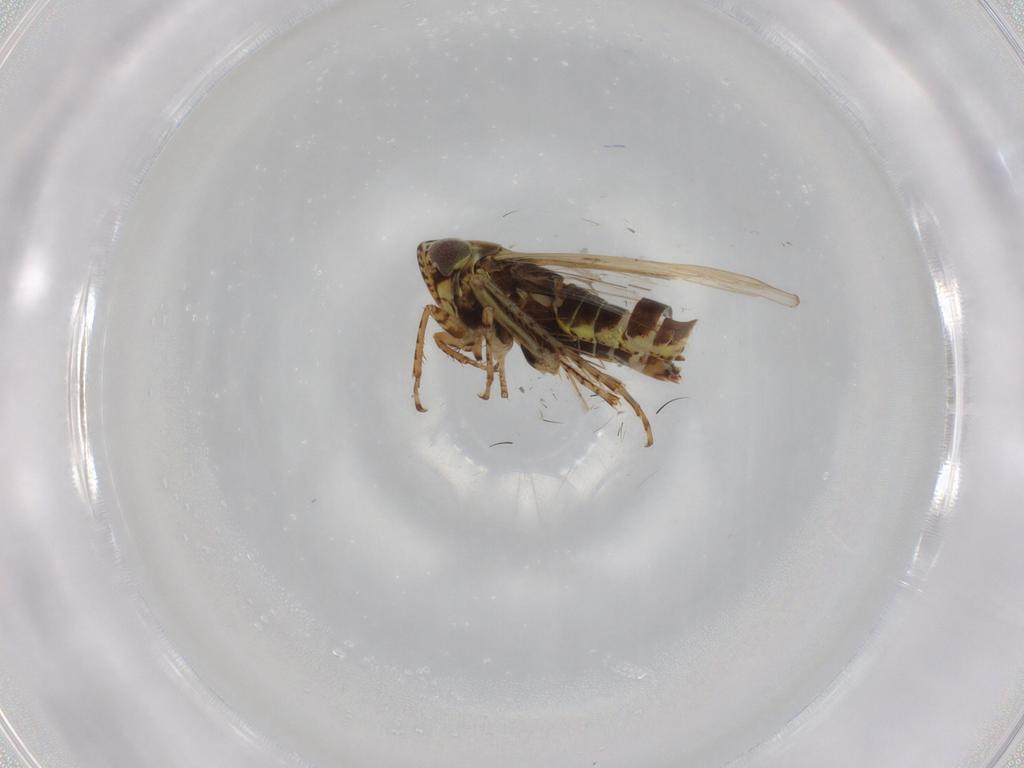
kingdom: Animalia
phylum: Arthropoda
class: Insecta
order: Hemiptera
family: Cicadellidae
